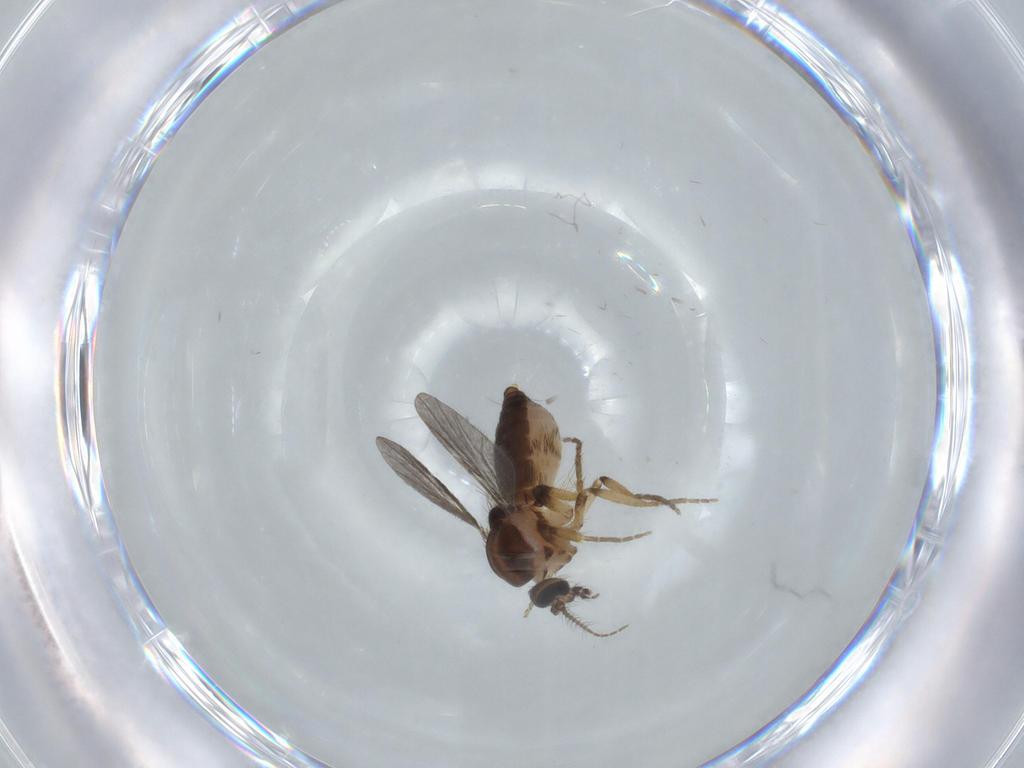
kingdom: Animalia
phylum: Arthropoda
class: Insecta
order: Diptera
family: Ceratopogonidae
